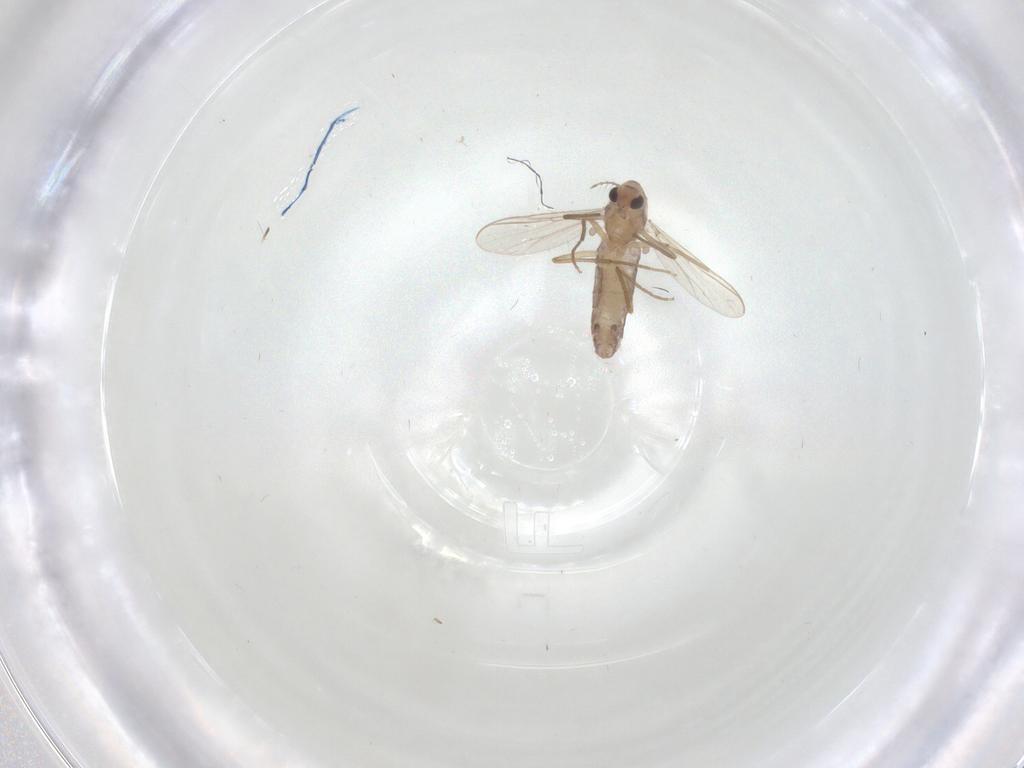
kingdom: Animalia
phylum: Arthropoda
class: Insecta
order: Diptera
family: Chironomidae
